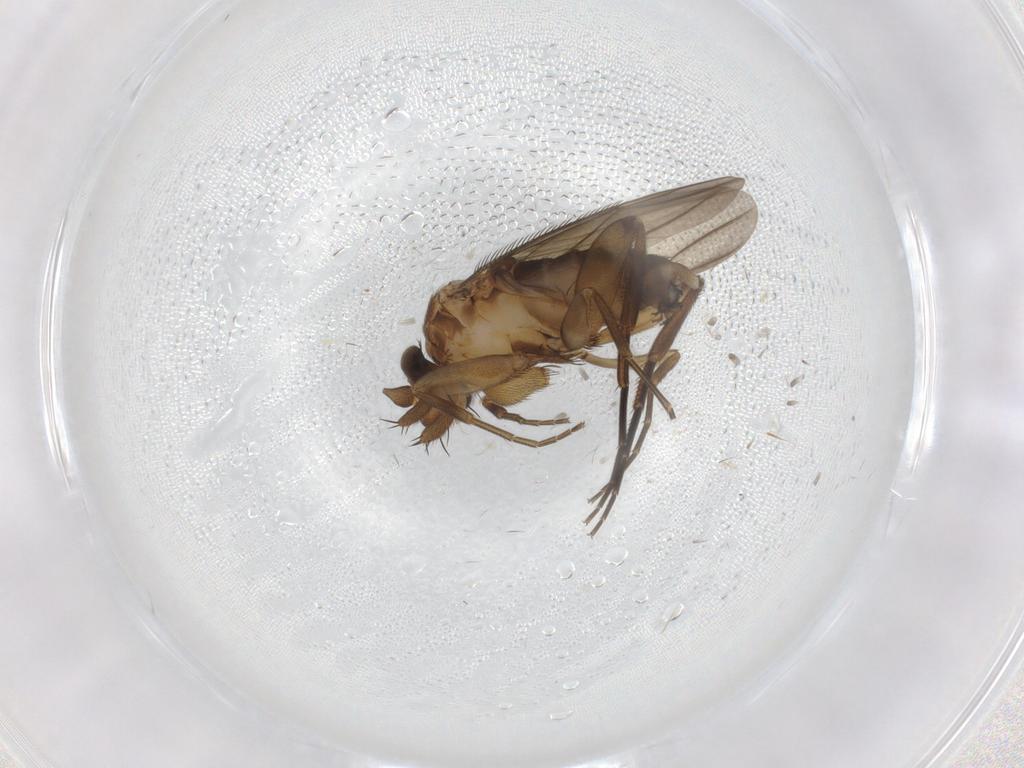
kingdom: Animalia
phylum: Arthropoda
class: Insecta
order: Diptera
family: Phoridae
